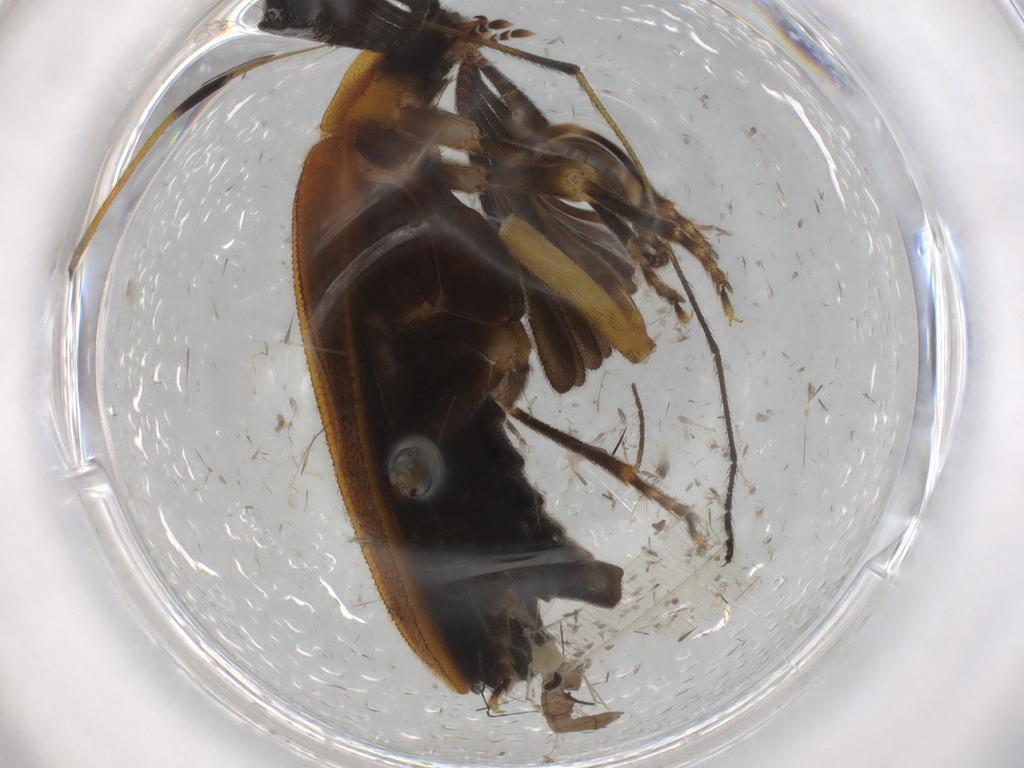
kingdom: Animalia
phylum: Arthropoda
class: Insecta
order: Coleoptera
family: Lampyridae
